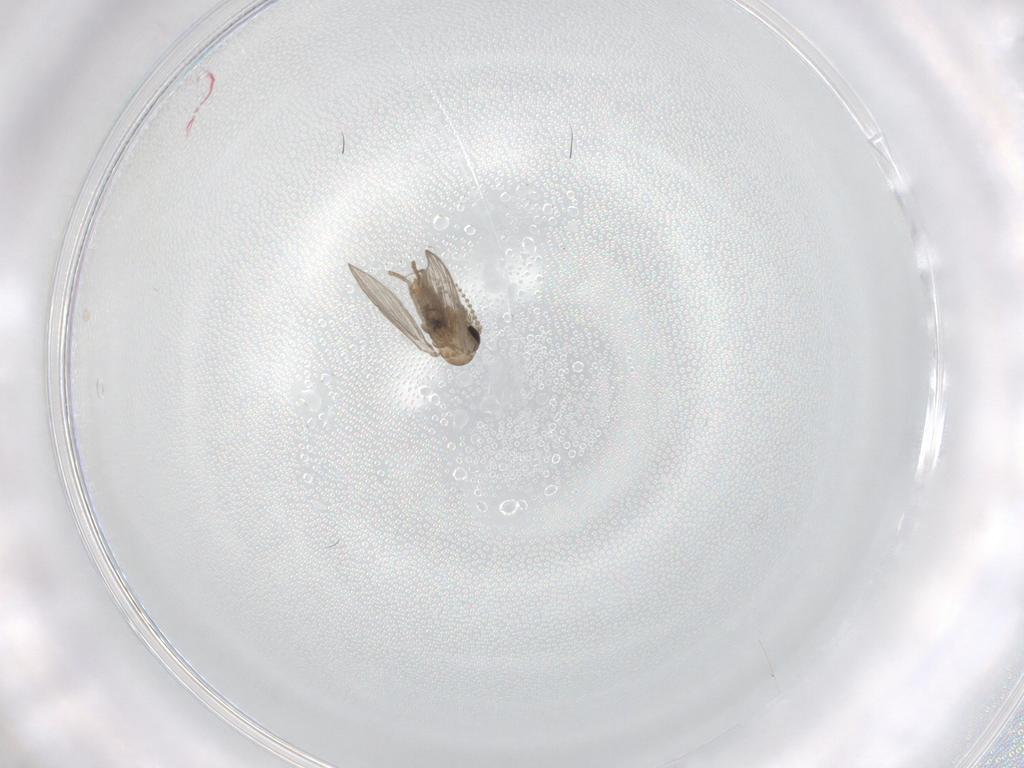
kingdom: Animalia
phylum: Arthropoda
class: Insecta
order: Diptera
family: Psychodidae
